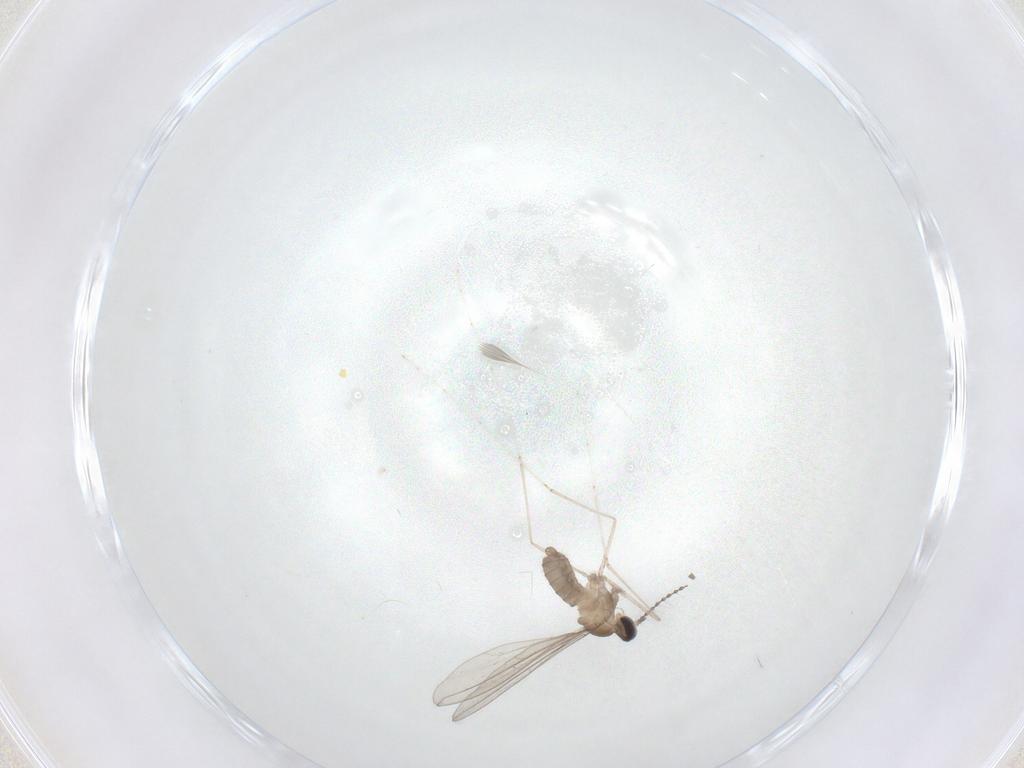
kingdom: Animalia
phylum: Arthropoda
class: Insecta
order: Diptera
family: Cecidomyiidae
